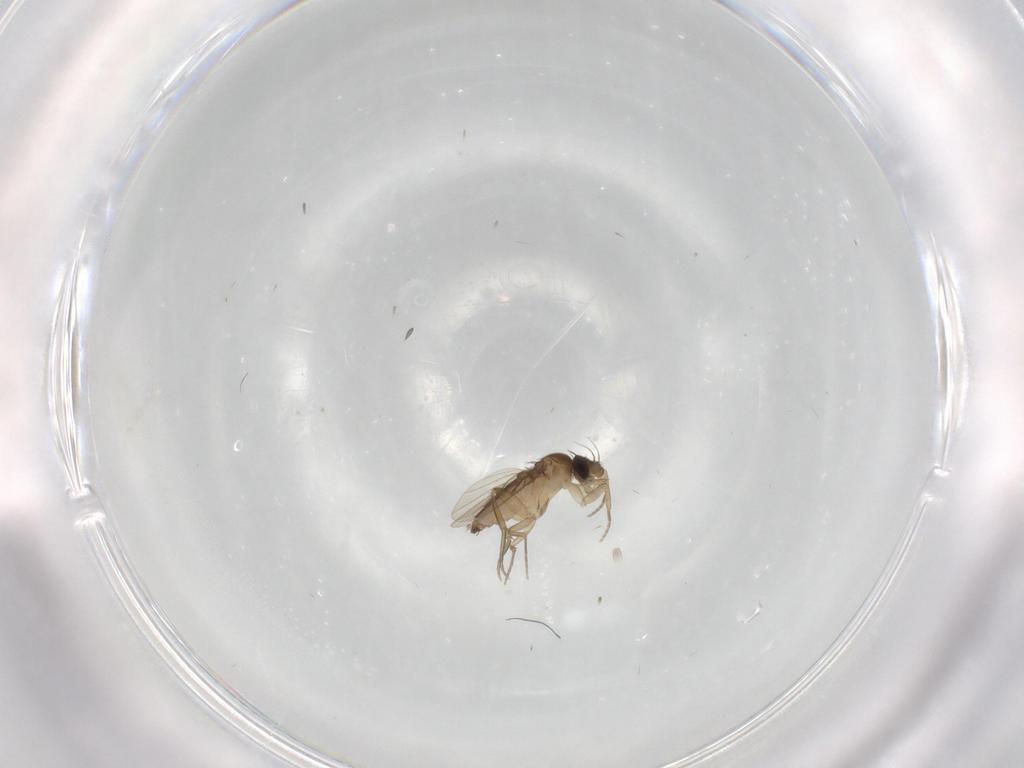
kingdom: Animalia
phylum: Arthropoda
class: Insecta
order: Diptera
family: Phoridae
